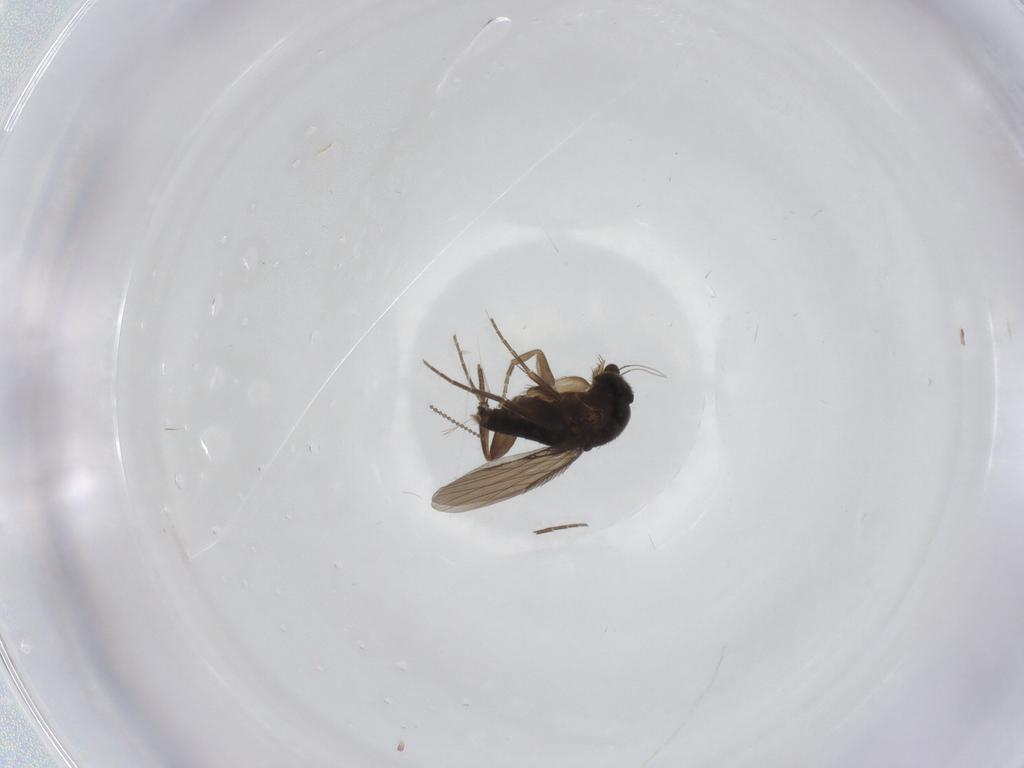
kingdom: Animalia
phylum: Arthropoda
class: Insecta
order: Diptera
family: Phoridae
